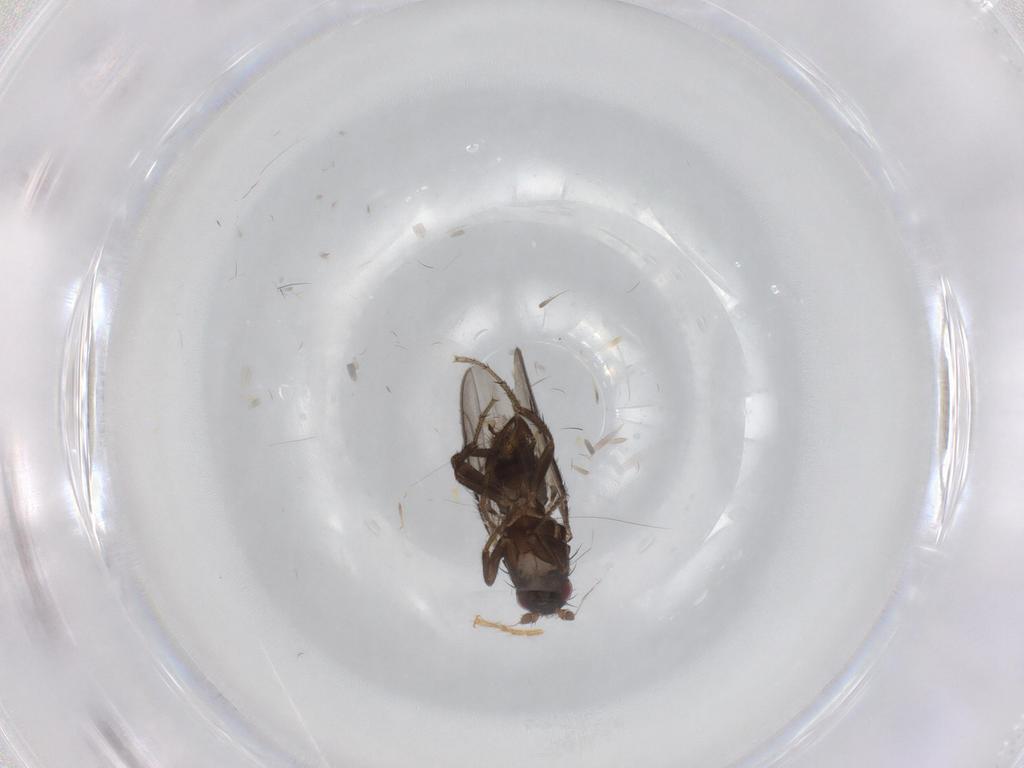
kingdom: Animalia
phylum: Arthropoda
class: Insecta
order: Diptera
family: Sphaeroceridae
